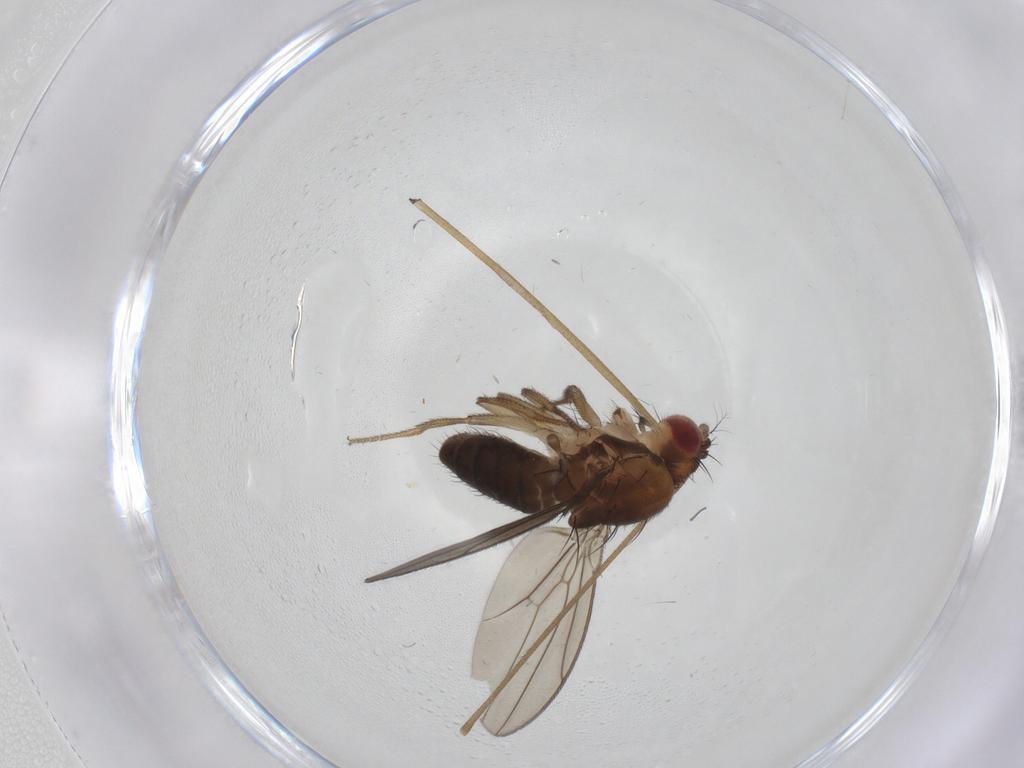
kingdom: Animalia
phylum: Arthropoda
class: Insecta
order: Diptera
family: Drosophilidae
